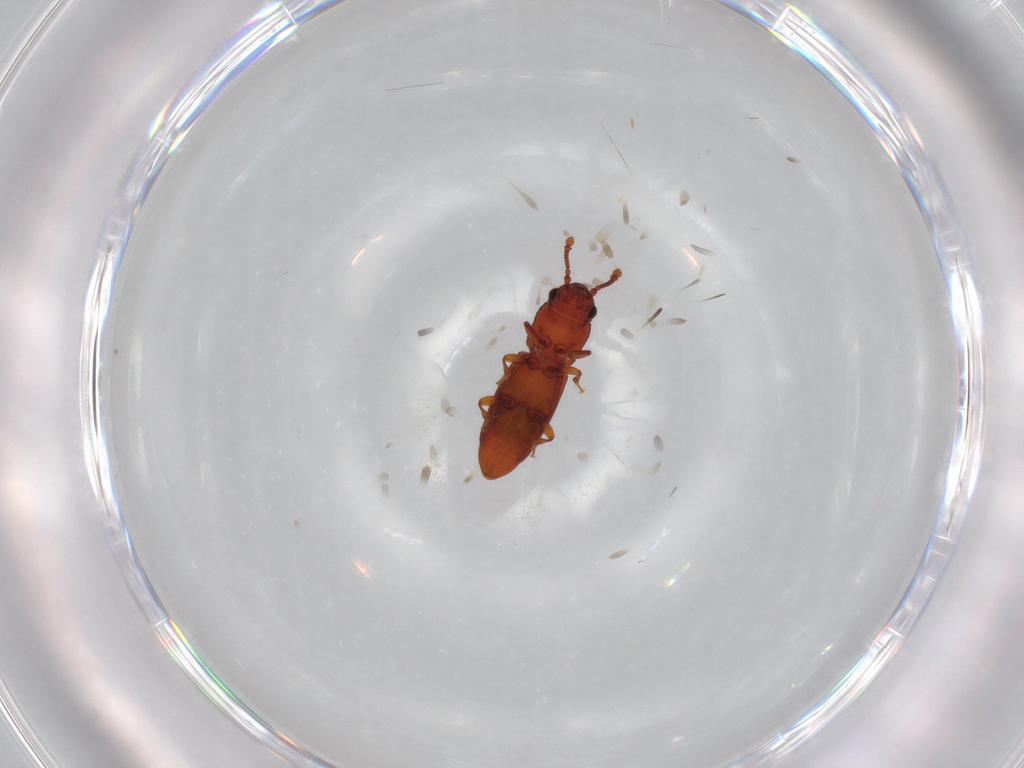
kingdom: Animalia
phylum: Arthropoda
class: Insecta
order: Coleoptera
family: Monotomidae
